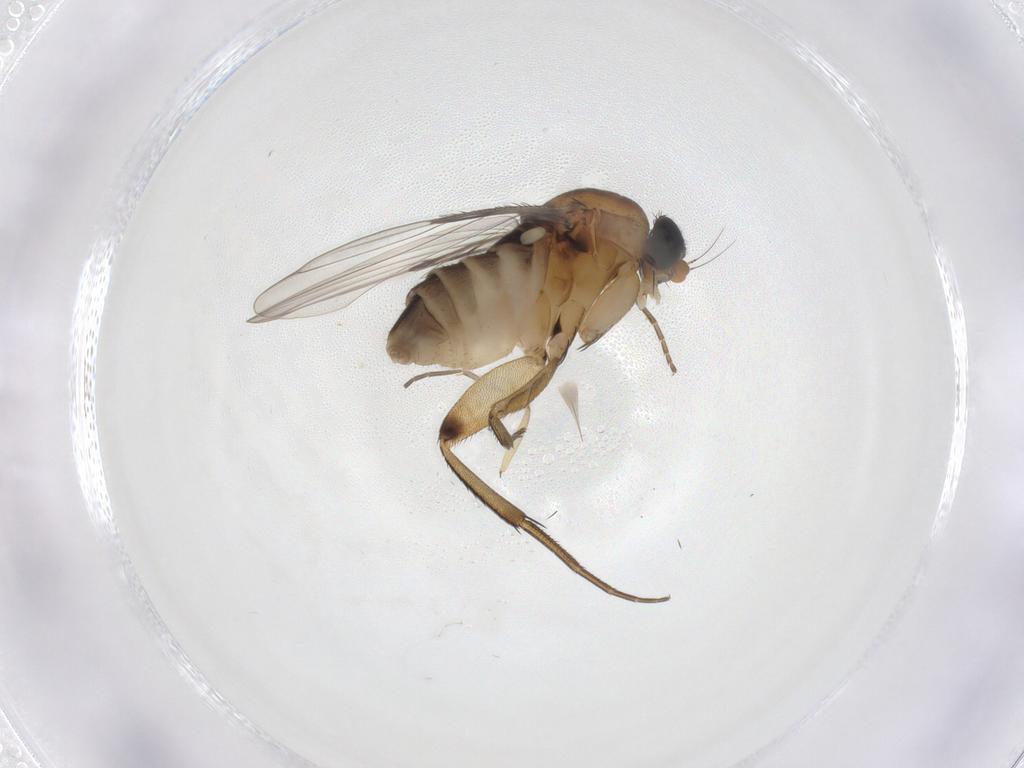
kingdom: Animalia
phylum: Arthropoda
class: Insecta
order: Diptera
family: Phoridae
